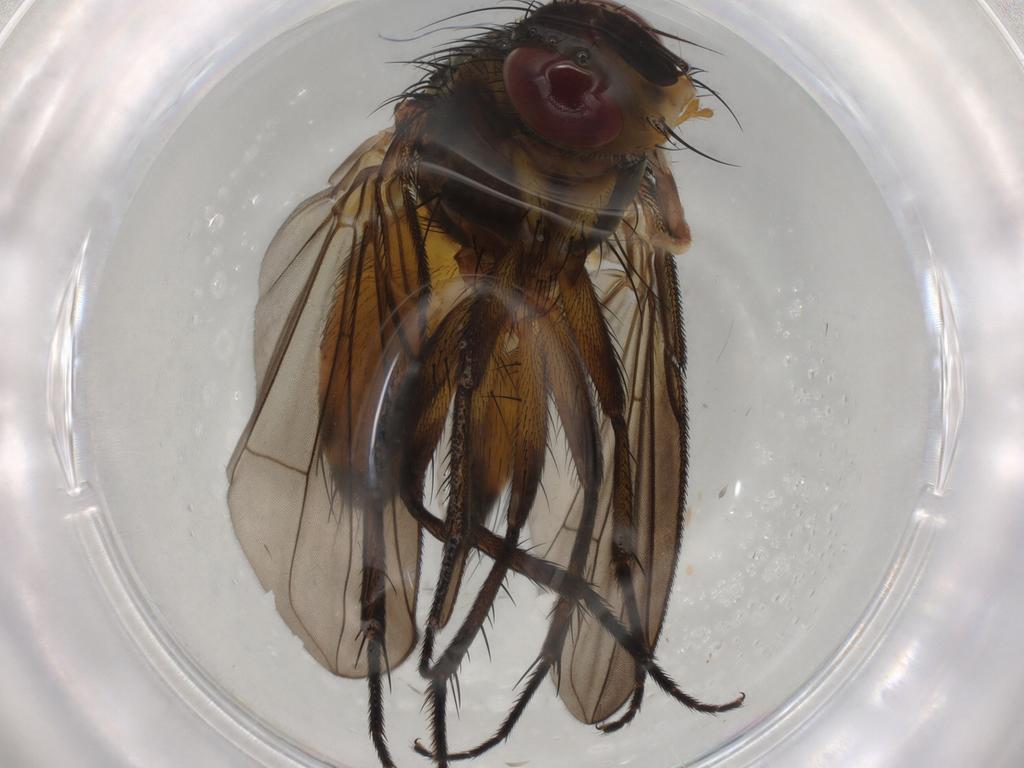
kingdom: Animalia
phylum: Arthropoda
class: Insecta
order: Diptera
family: Tachinidae
